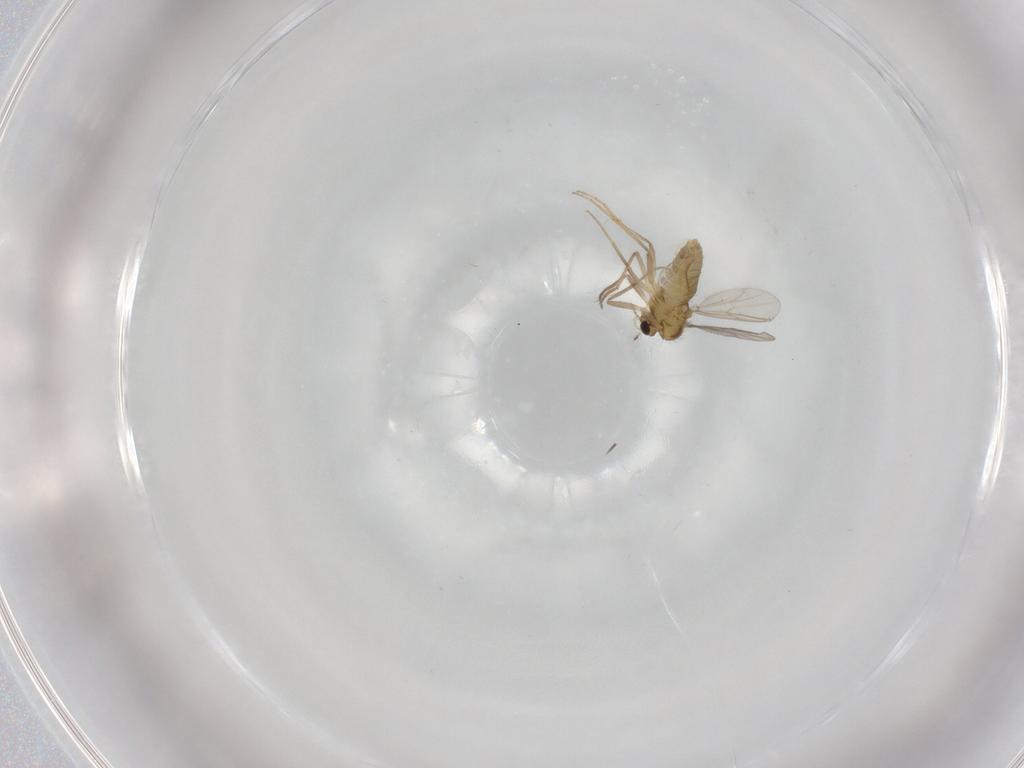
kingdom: Animalia
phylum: Arthropoda
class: Insecta
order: Diptera
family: Chironomidae
